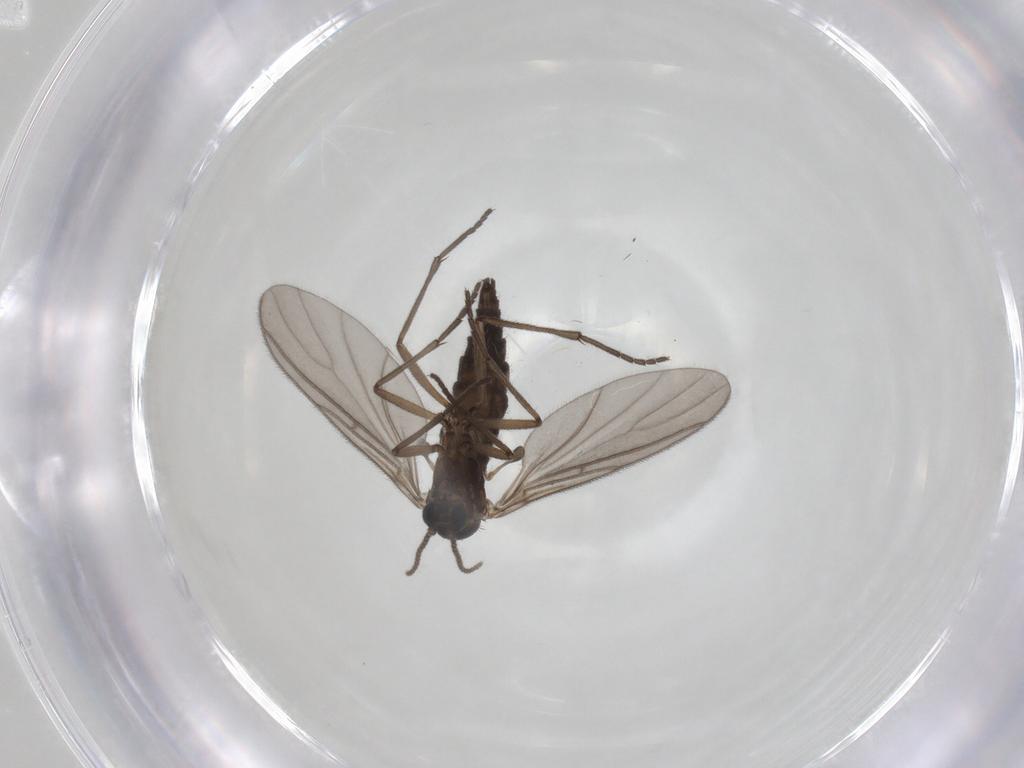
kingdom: Animalia
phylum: Arthropoda
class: Insecta
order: Diptera
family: Sciaridae
